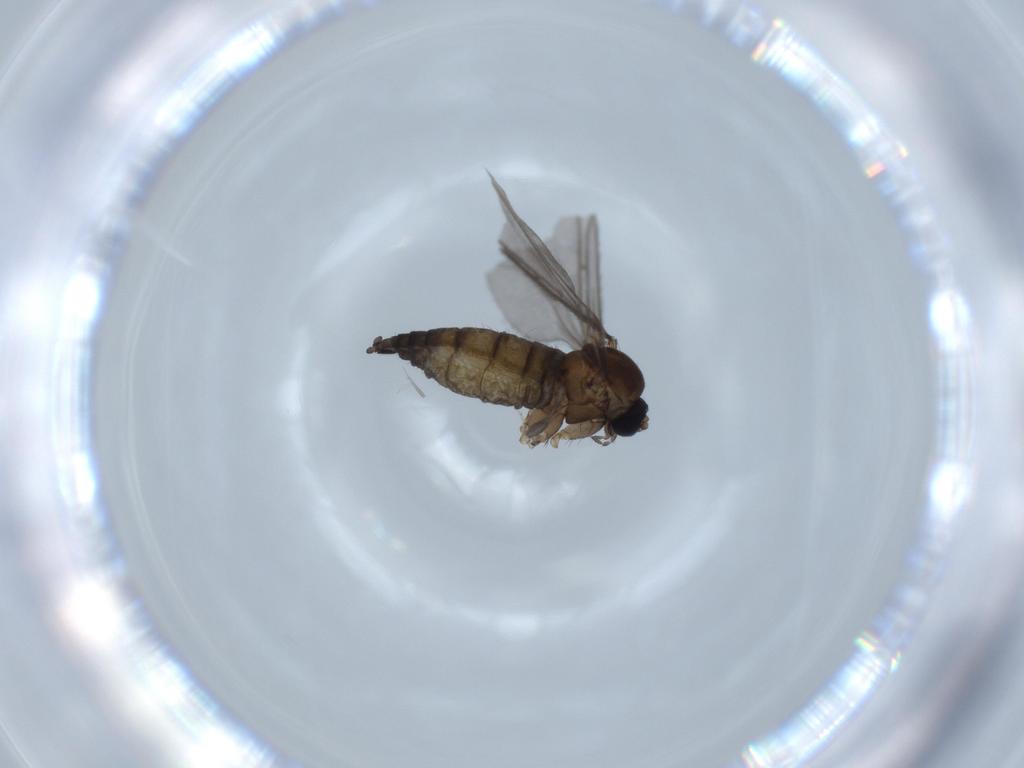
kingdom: Animalia
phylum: Arthropoda
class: Insecta
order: Diptera
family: Sciaridae
